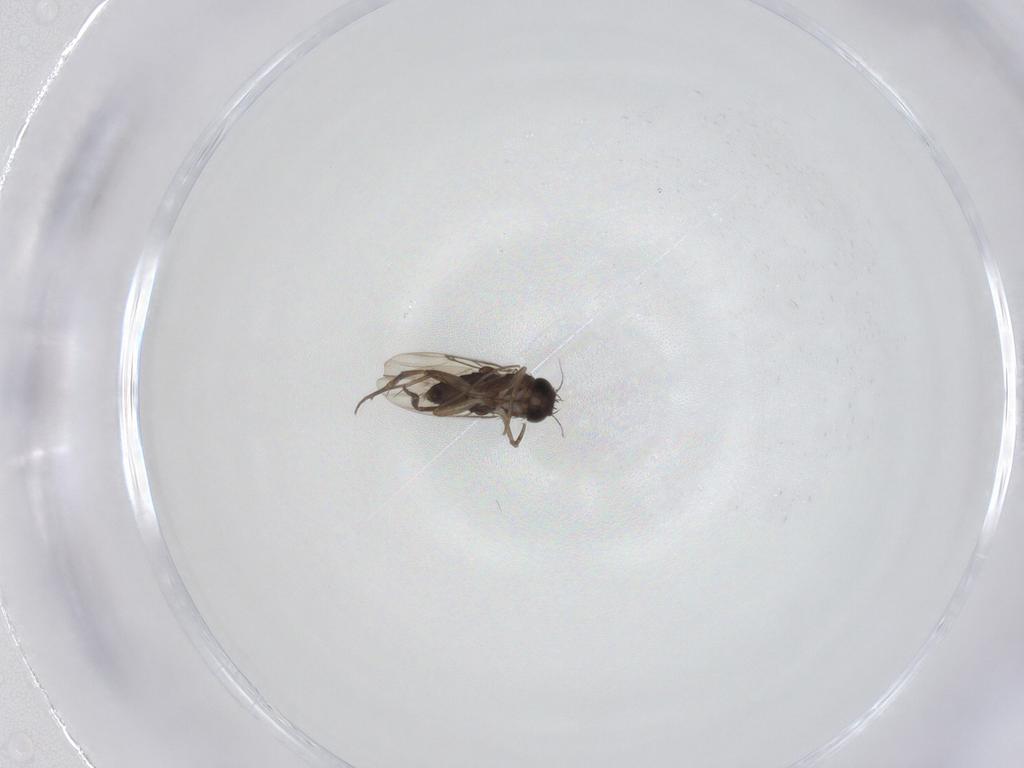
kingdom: Animalia
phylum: Arthropoda
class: Insecta
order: Diptera
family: Phoridae
